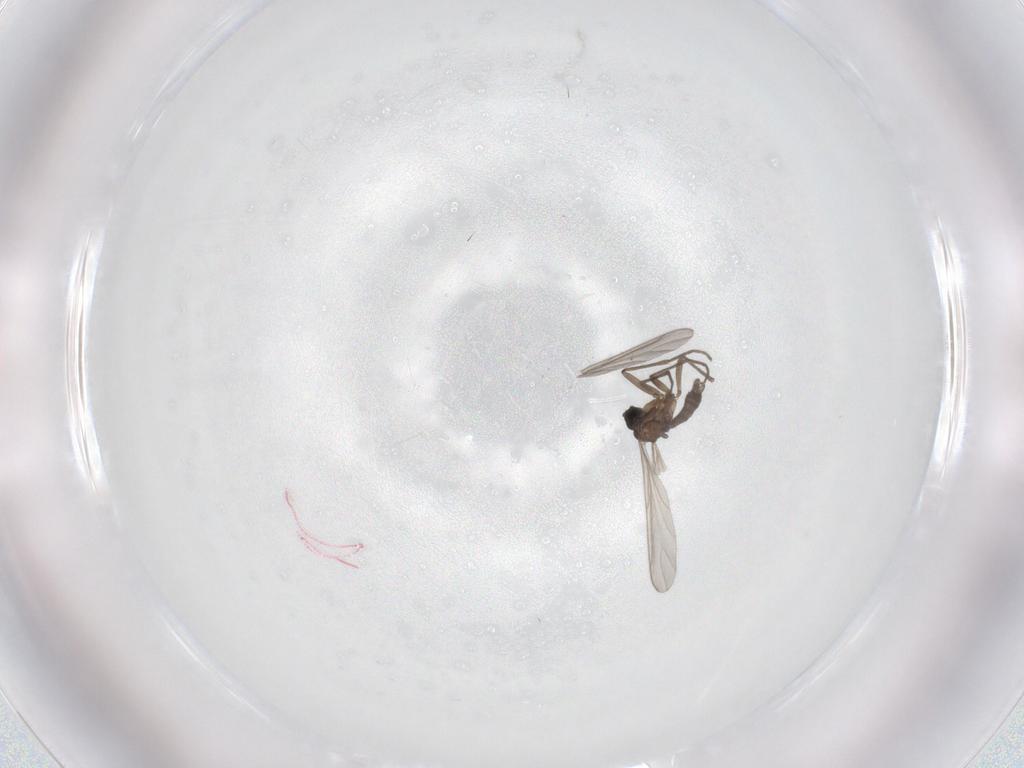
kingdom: Animalia
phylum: Arthropoda
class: Insecta
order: Diptera
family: Sciaridae
